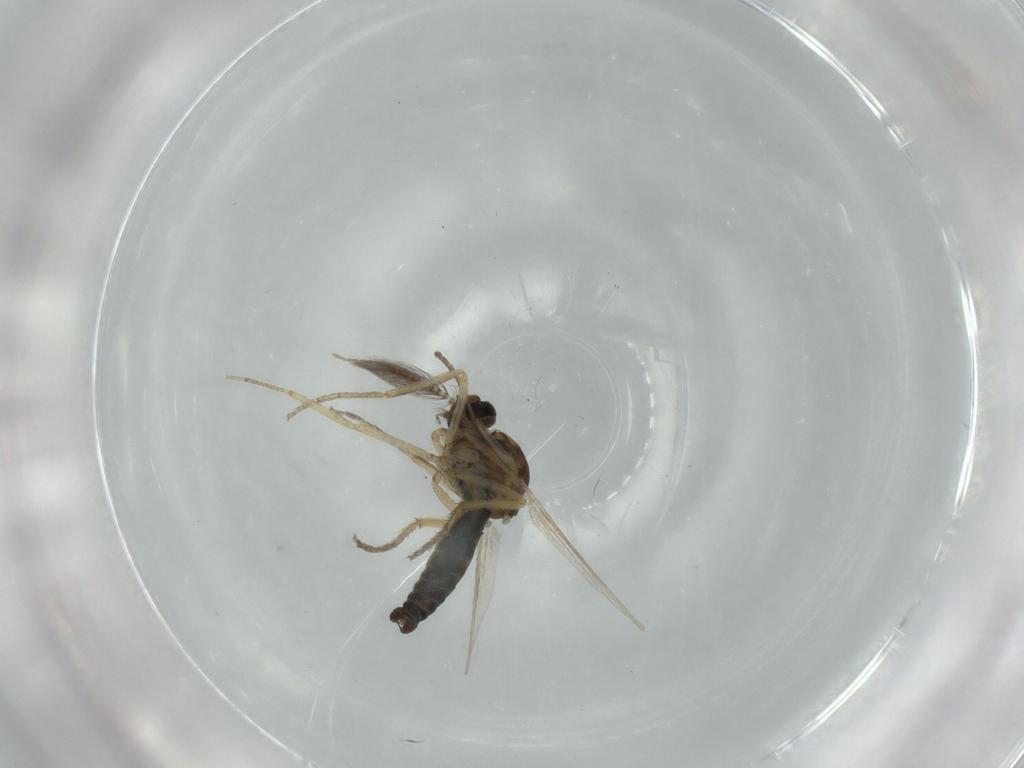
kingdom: Animalia
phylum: Arthropoda
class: Insecta
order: Diptera
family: Ceratopogonidae
